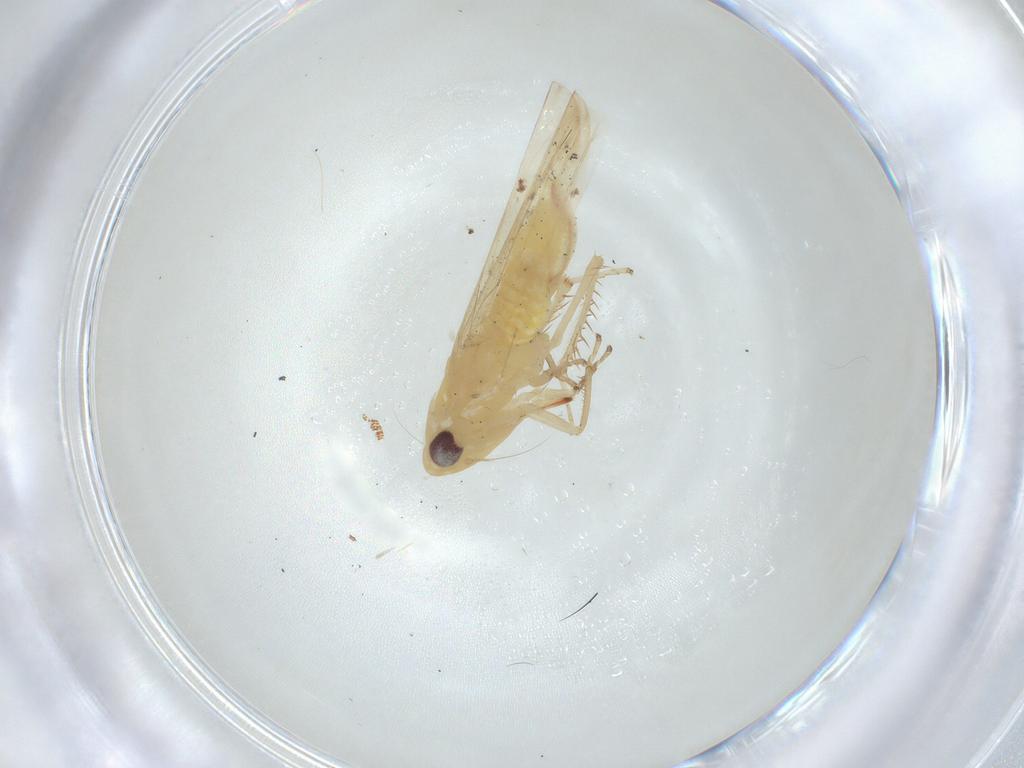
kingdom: Animalia
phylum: Arthropoda
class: Insecta
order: Hemiptera
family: Cicadellidae
